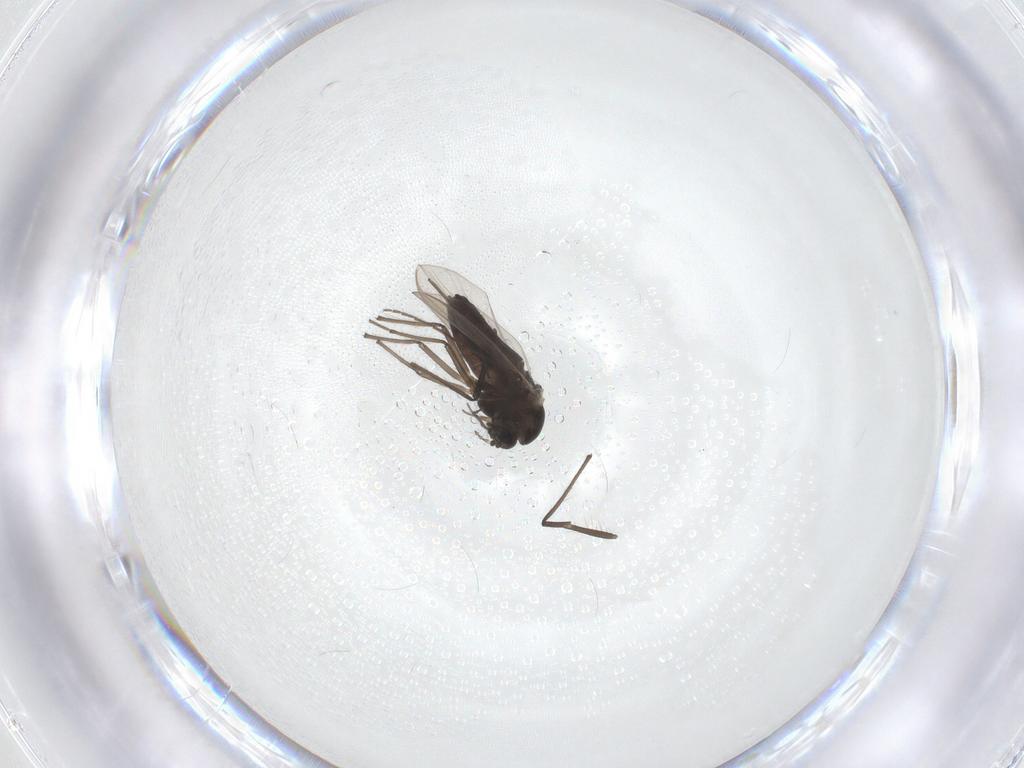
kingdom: Animalia
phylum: Arthropoda
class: Insecta
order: Diptera
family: Chironomidae
